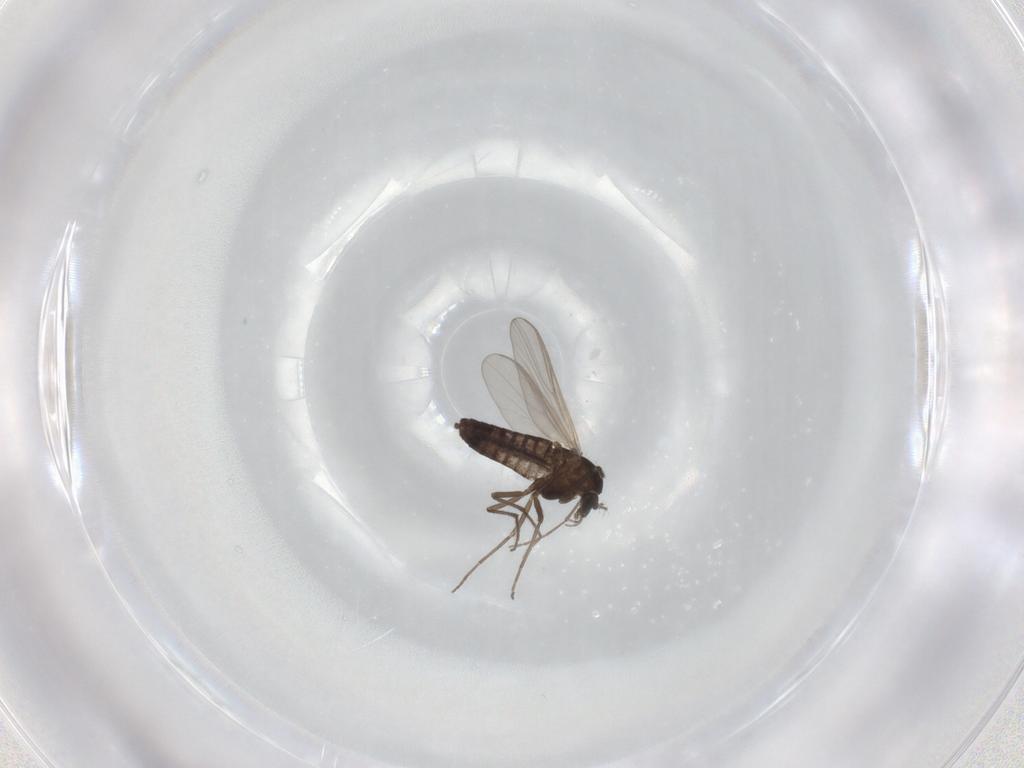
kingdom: Animalia
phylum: Arthropoda
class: Insecta
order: Diptera
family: Chironomidae
